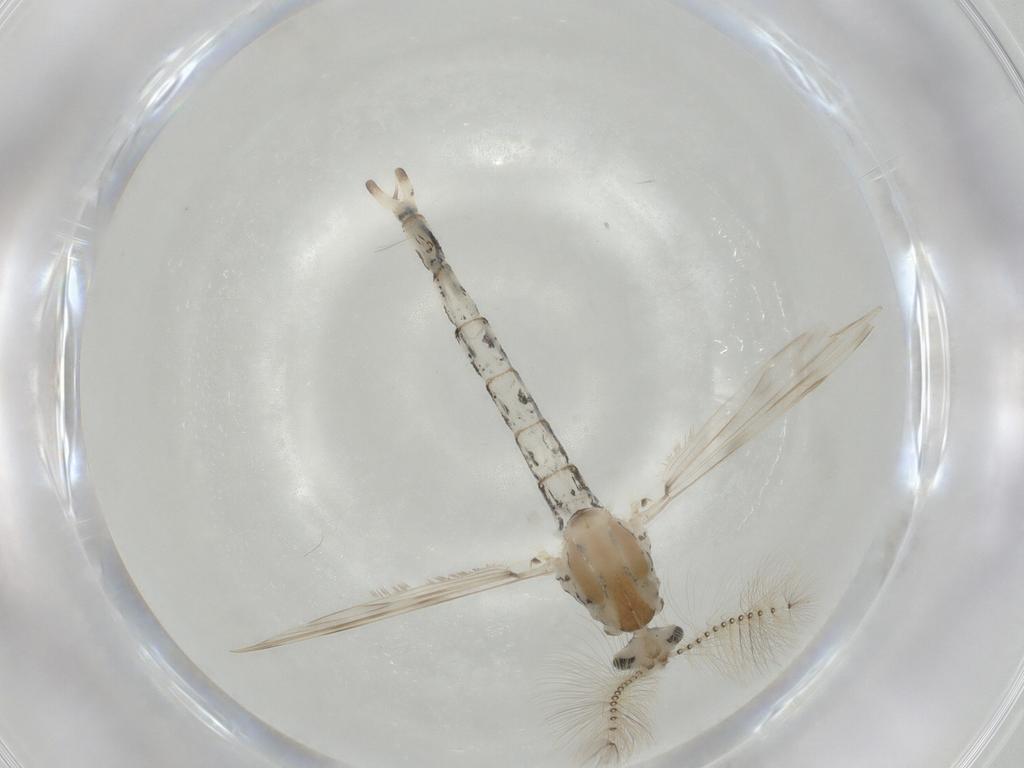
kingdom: Animalia
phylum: Arthropoda
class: Insecta
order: Diptera
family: Chaoboridae
